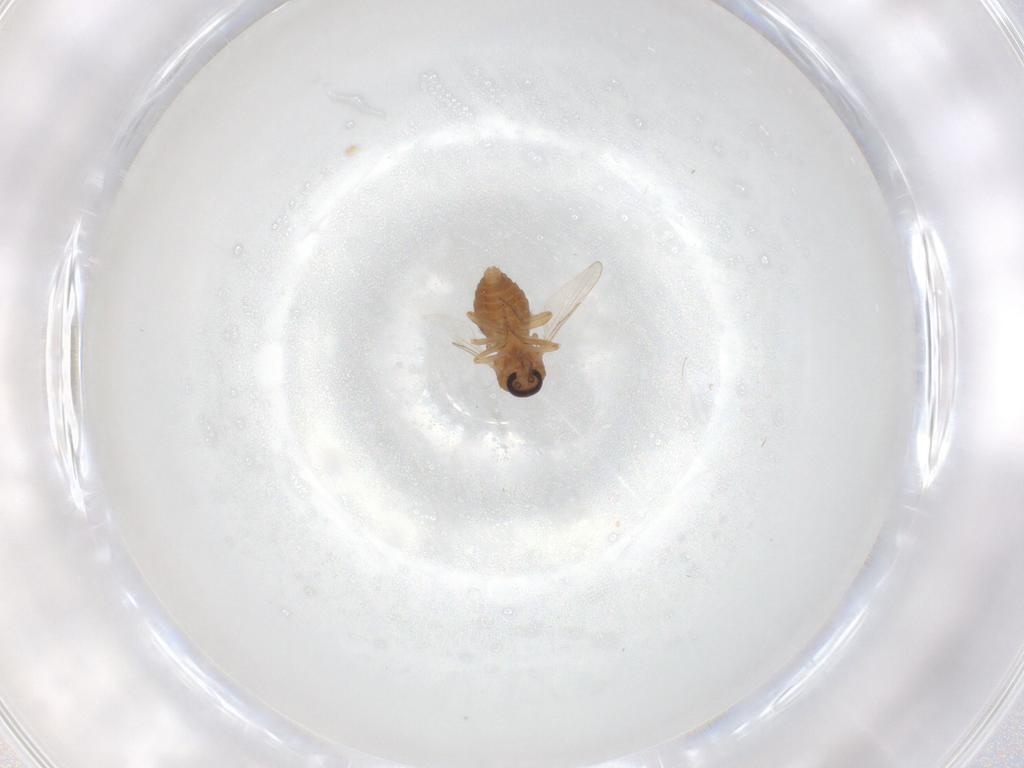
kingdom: Animalia
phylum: Arthropoda
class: Insecta
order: Diptera
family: Ceratopogonidae
